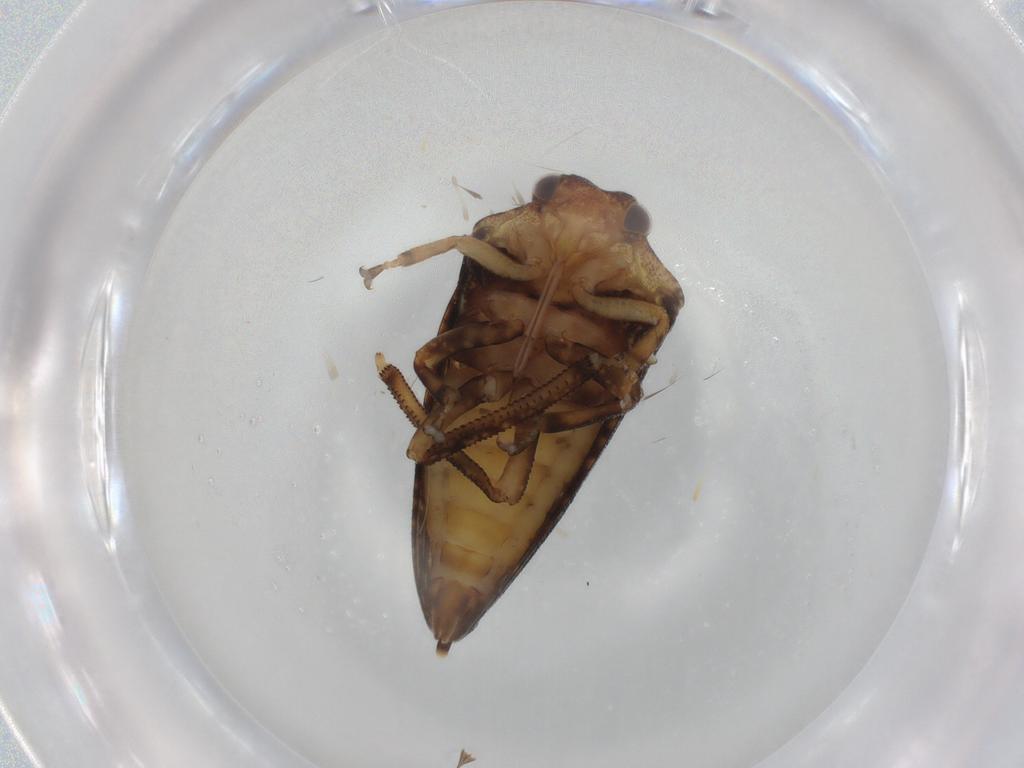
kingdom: Animalia
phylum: Arthropoda
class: Insecta
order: Hemiptera
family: Aetalionidae
